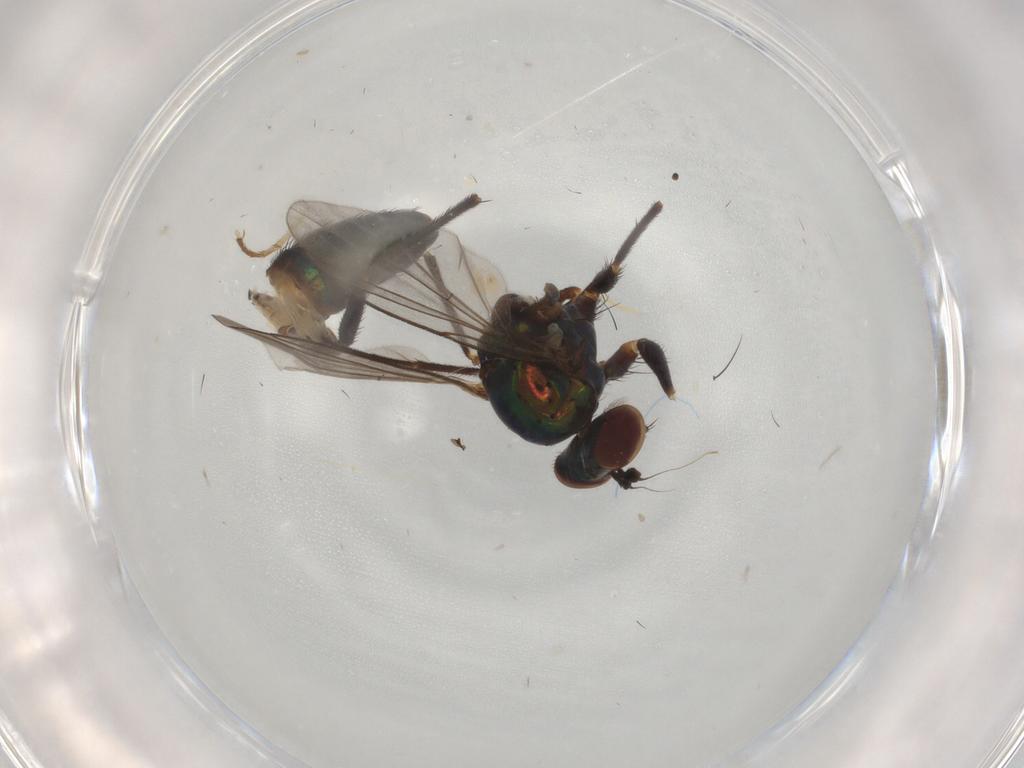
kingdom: Animalia
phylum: Arthropoda
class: Insecta
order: Diptera
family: Dolichopodidae
